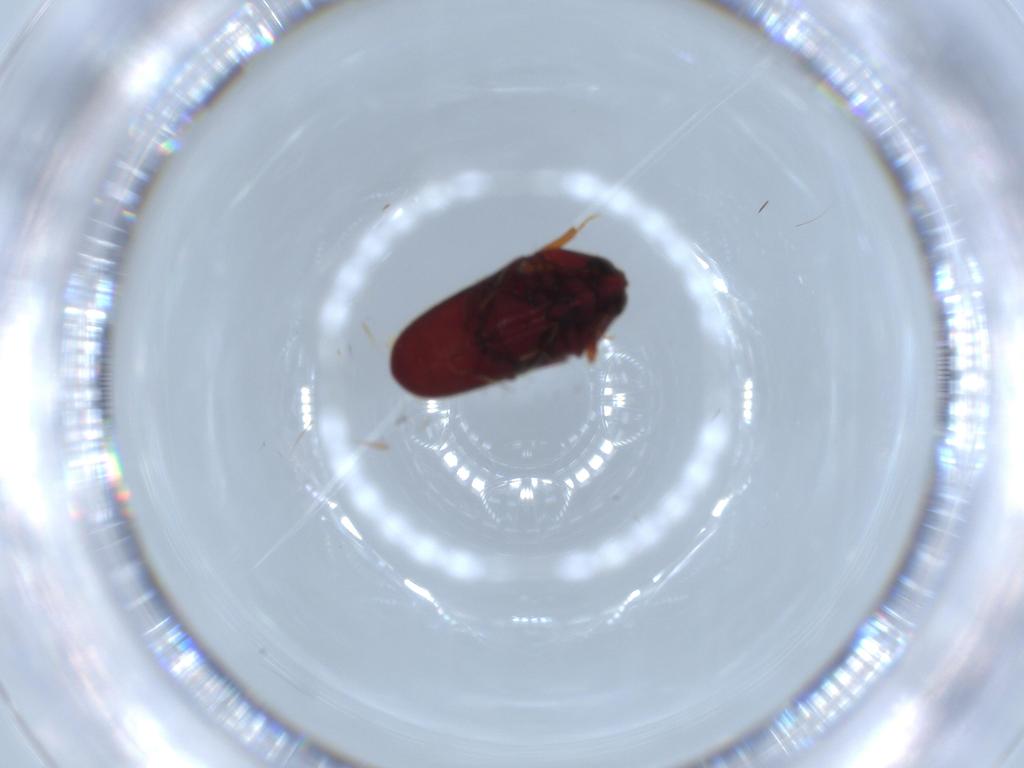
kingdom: Animalia
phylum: Arthropoda
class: Insecta
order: Coleoptera
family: Throscidae
